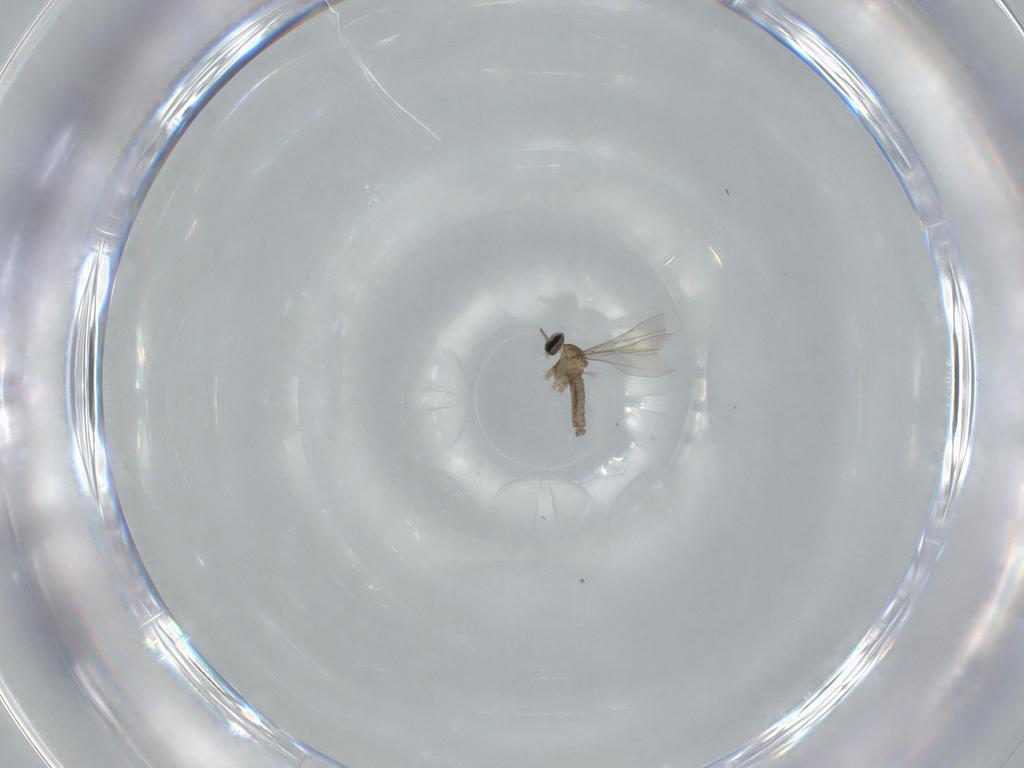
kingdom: Animalia
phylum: Arthropoda
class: Insecta
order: Diptera
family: Cecidomyiidae
